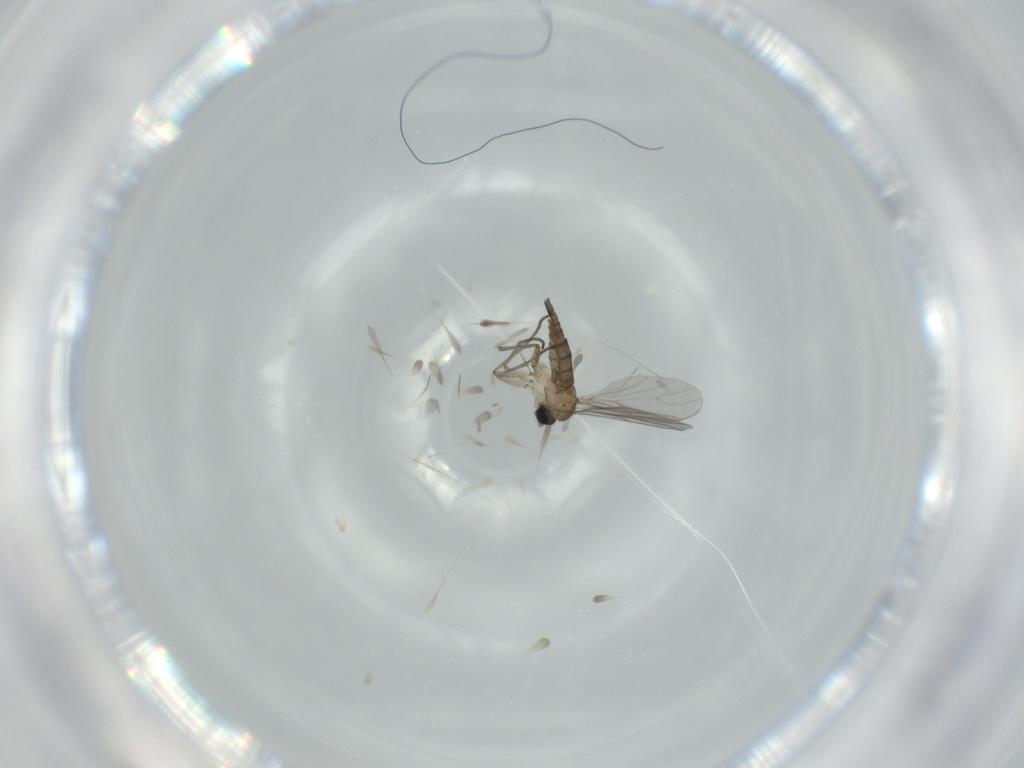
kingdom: Animalia
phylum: Arthropoda
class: Insecta
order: Diptera
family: Sciaridae
